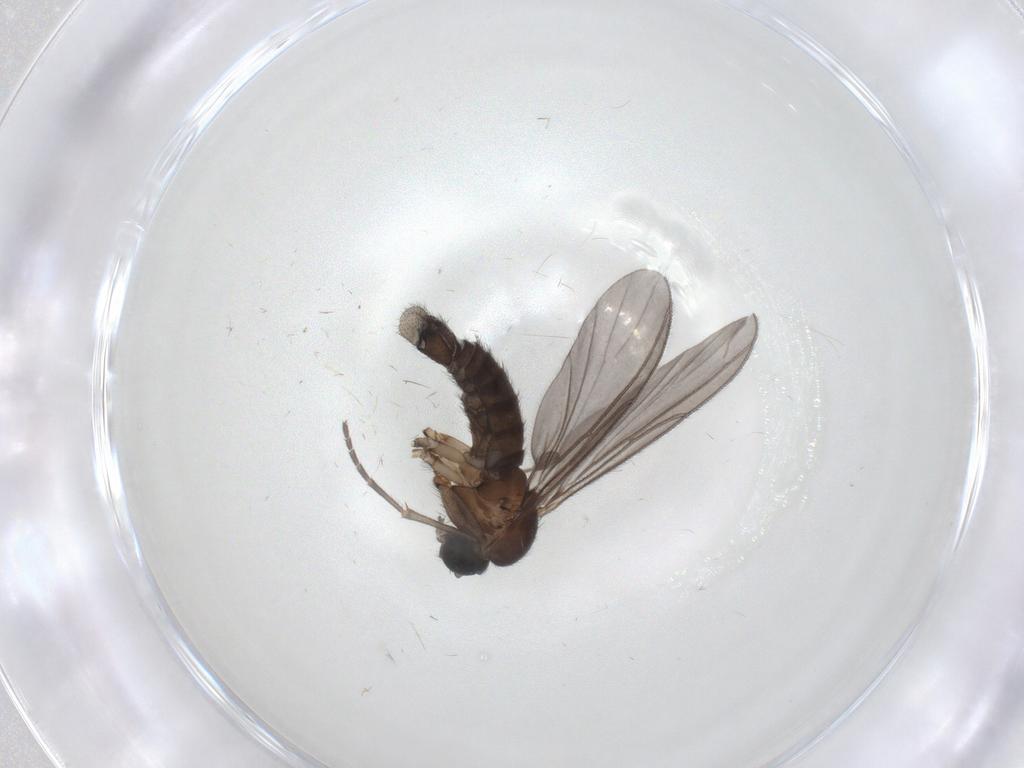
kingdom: Animalia
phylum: Arthropoda
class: Insecta
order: Diptera
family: Phoridae
